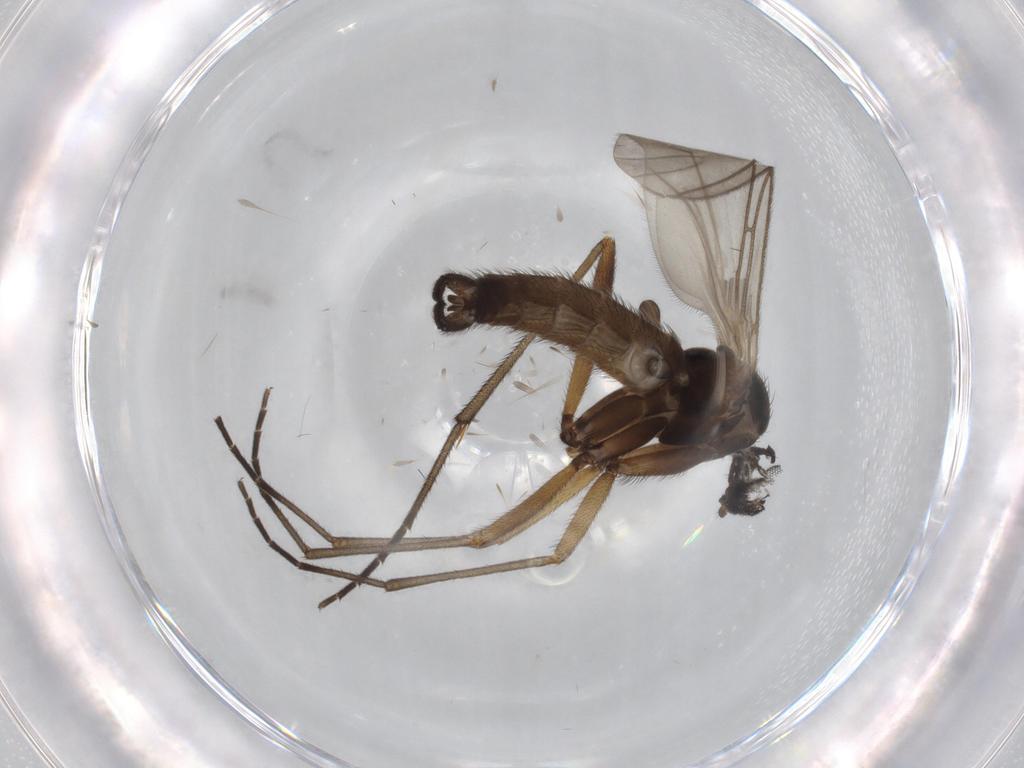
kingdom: Animalia
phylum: Arthropoda
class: Insecta
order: Diptera
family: Sciaridae
